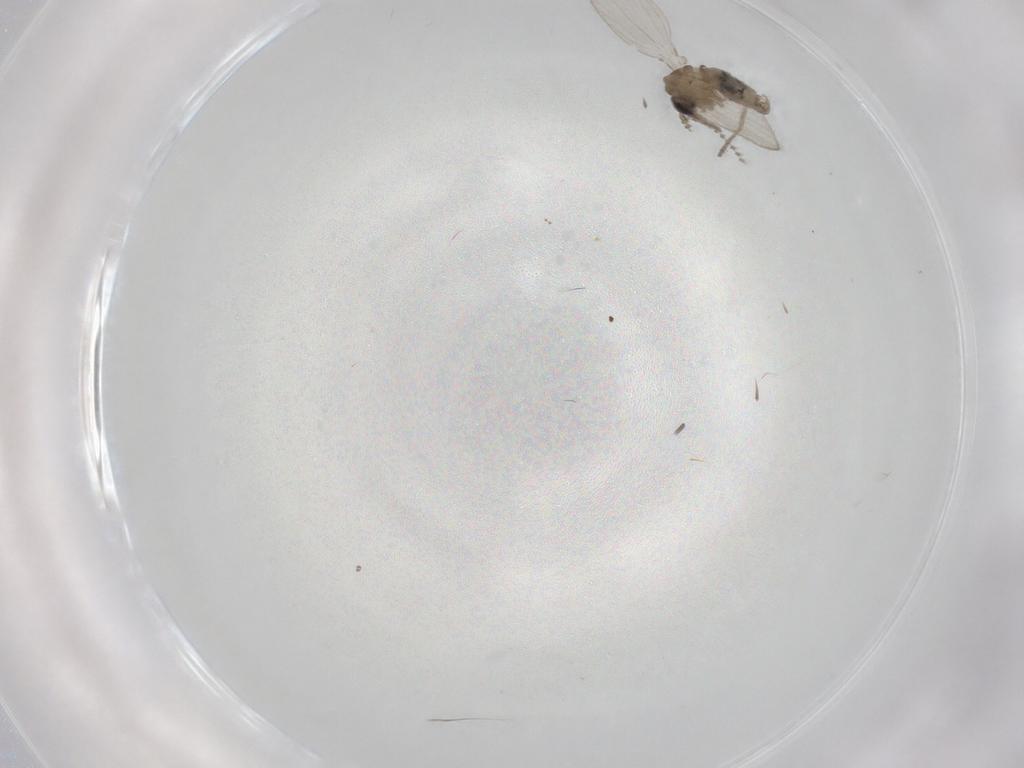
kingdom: Animalia
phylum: Arthropoda
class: Insecta
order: Diptera
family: Psychodidae
